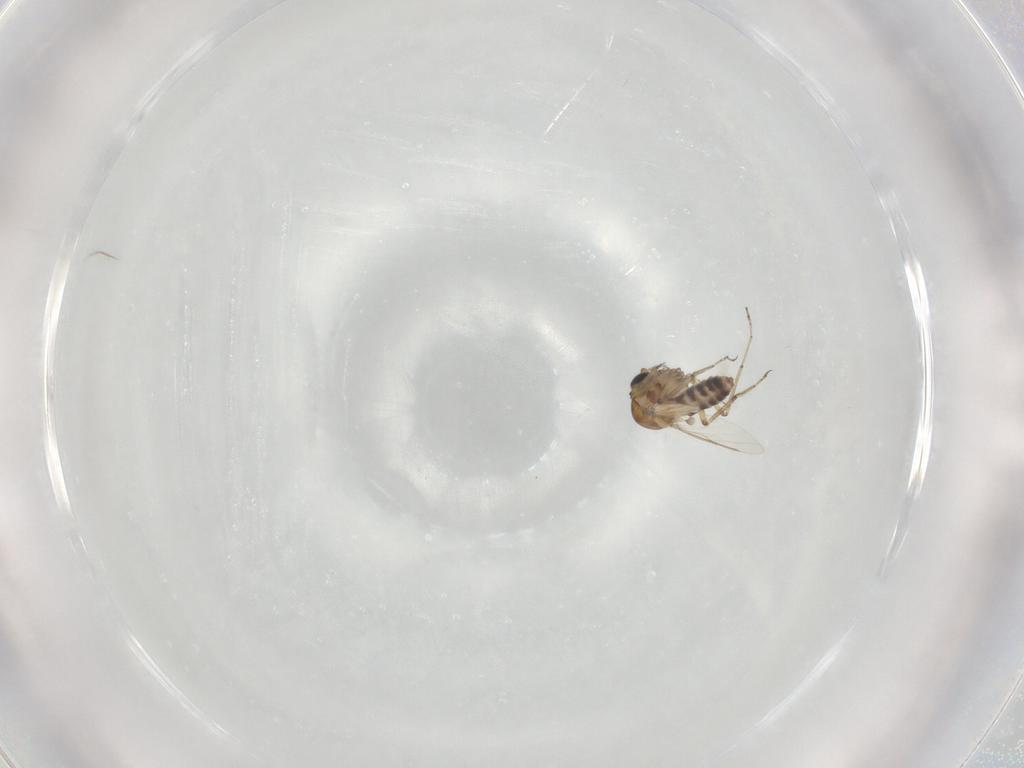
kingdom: Animalia
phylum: Arthropoda
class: Insecta
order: Diptera
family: Ceratopogonidae
